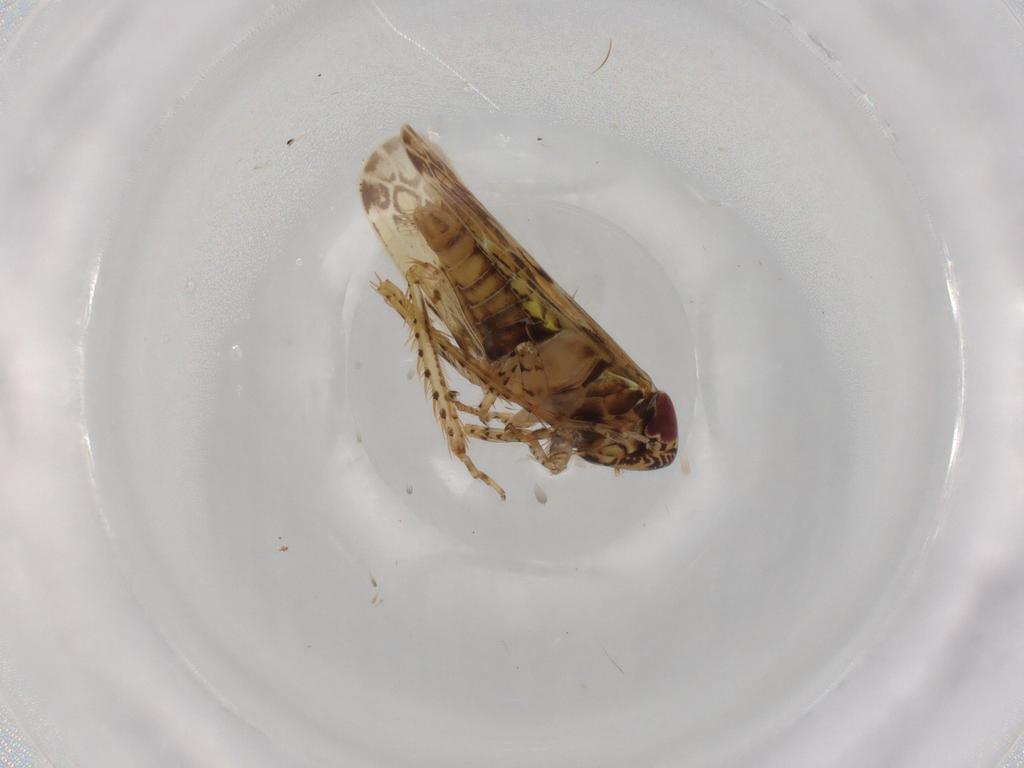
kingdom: Animalia
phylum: Arthropoda
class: Insecta
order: Hemiptera
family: Cicadellidae
